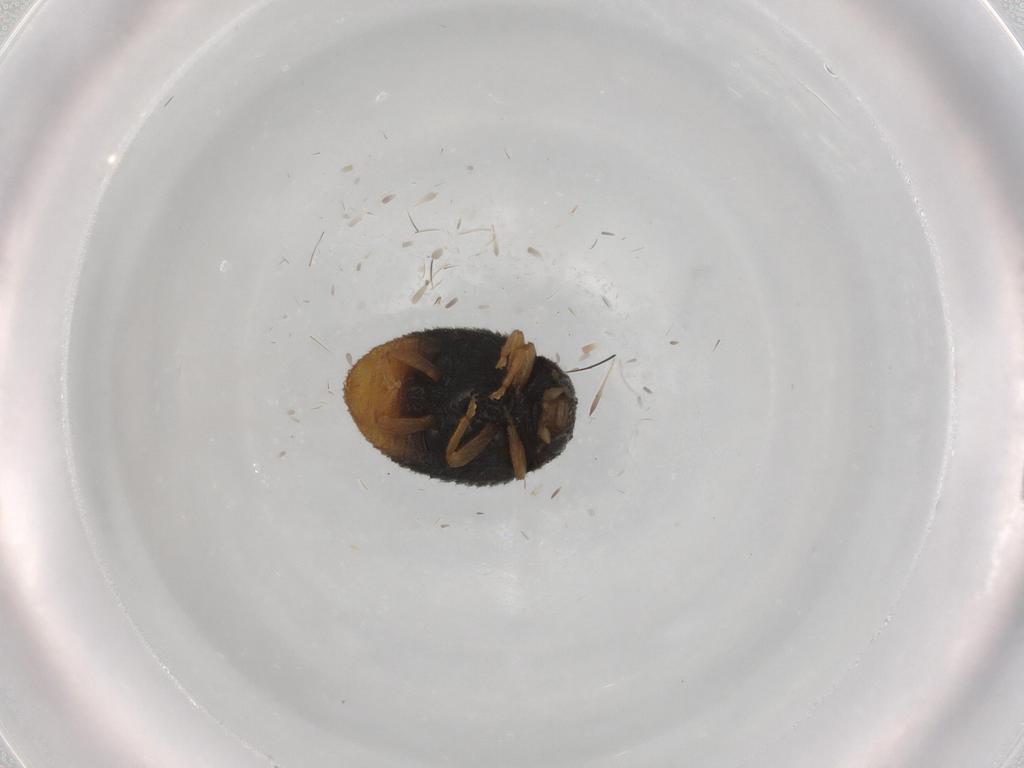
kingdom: Animalia
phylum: Arthropoda
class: Insecta
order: Coleoptera
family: Coccinellidae
